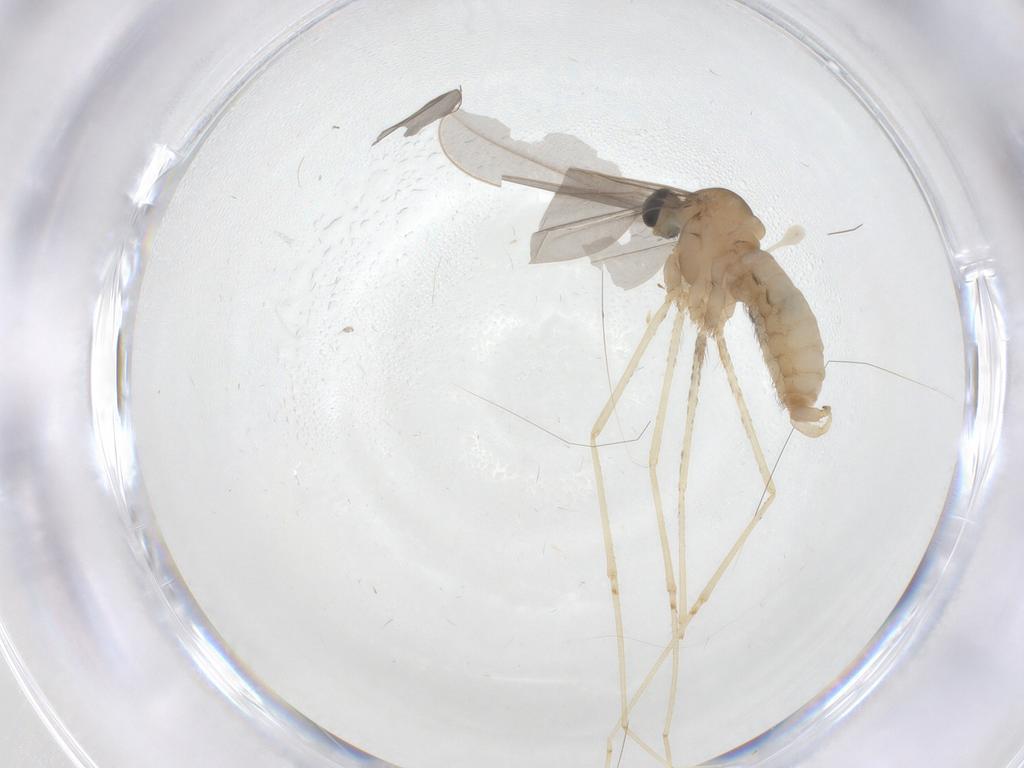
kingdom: Animalia
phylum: Arthropoda
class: Insecta
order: Diptera
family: Cecidomyiidae
